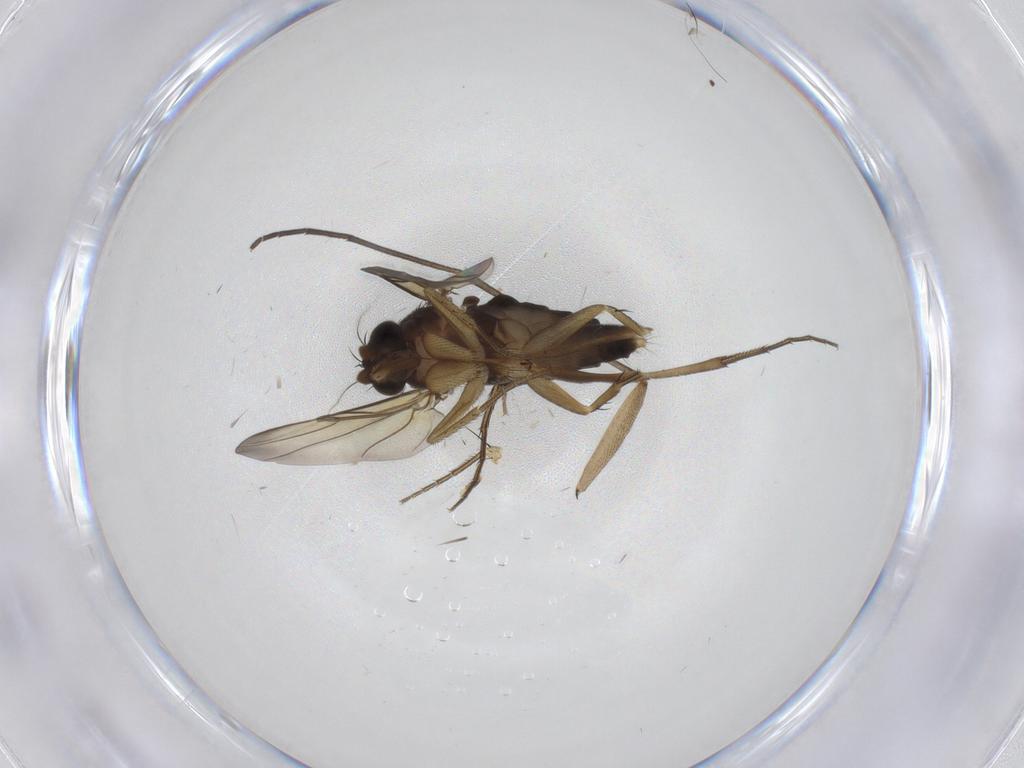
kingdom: Animalia
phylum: Arthropoda
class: Insecta
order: Diptera
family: Phoridae
